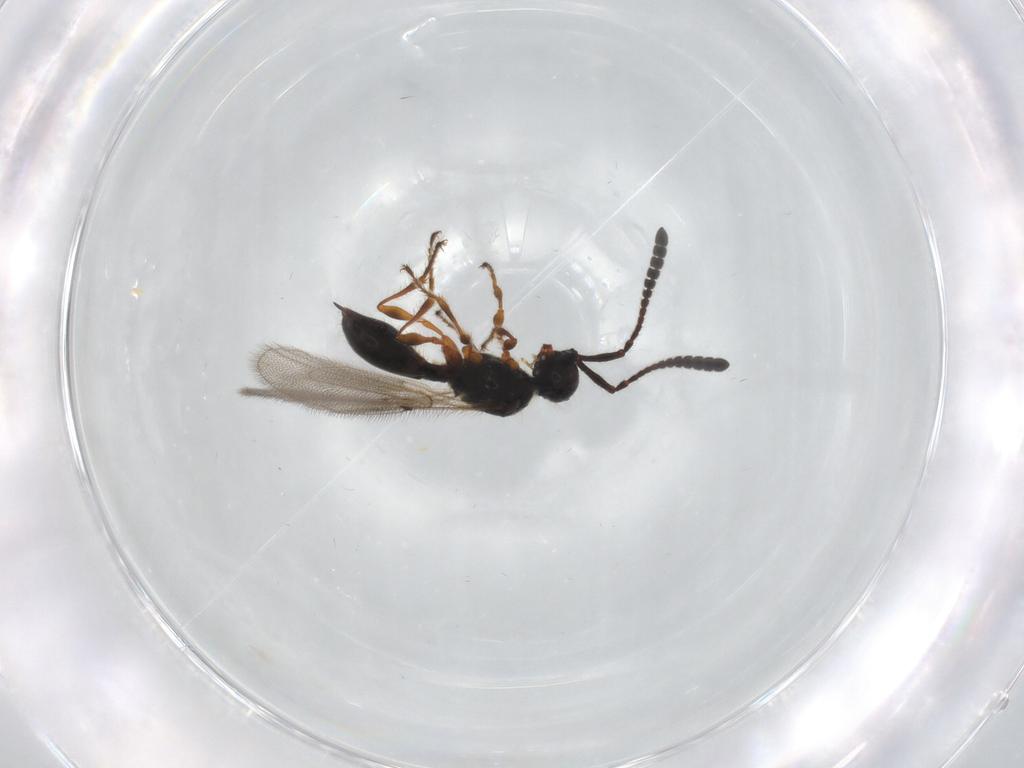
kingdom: Animalia
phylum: Arthropoda
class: Insecta
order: Hymenoptera
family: Diapriidae
